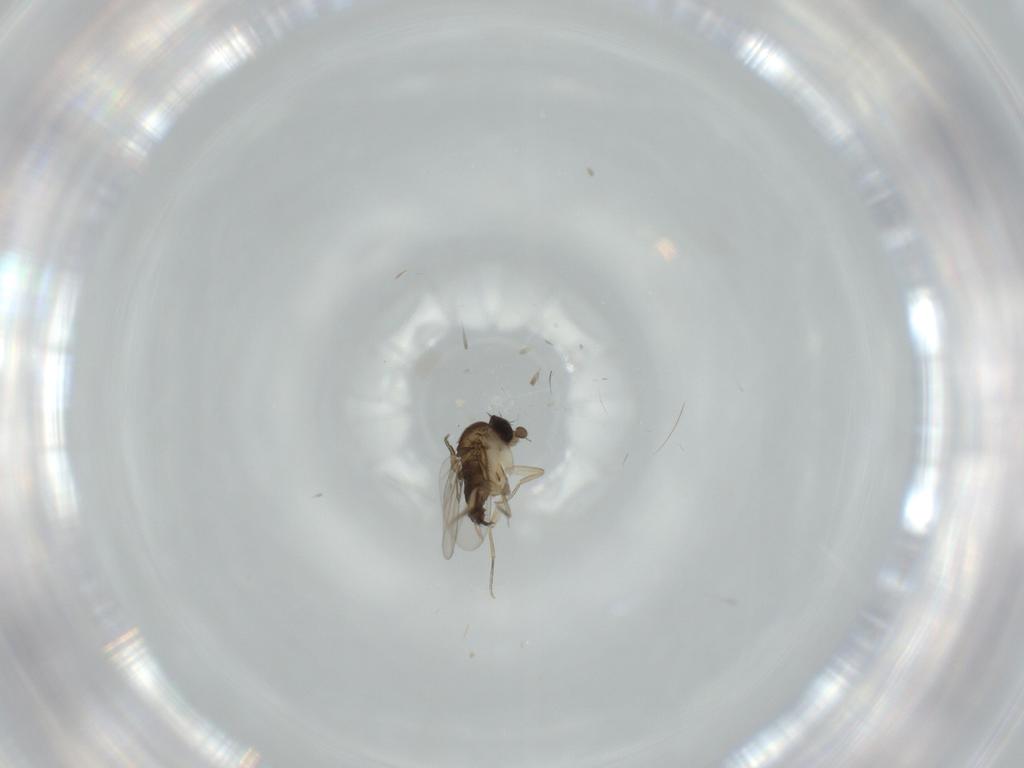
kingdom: Animalia
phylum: Arthropoda
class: Insecta
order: Diptera
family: Phoridae
